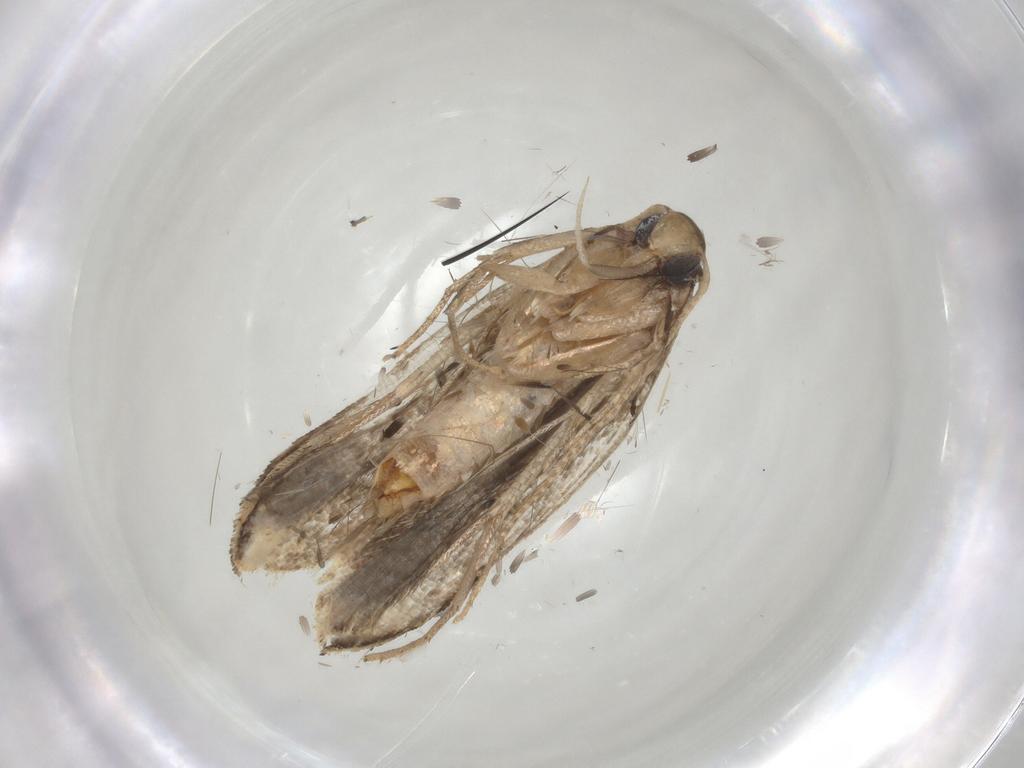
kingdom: Animalia
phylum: Arthropoda
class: Insecta
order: Lepidoptera
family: Gelechiidae
